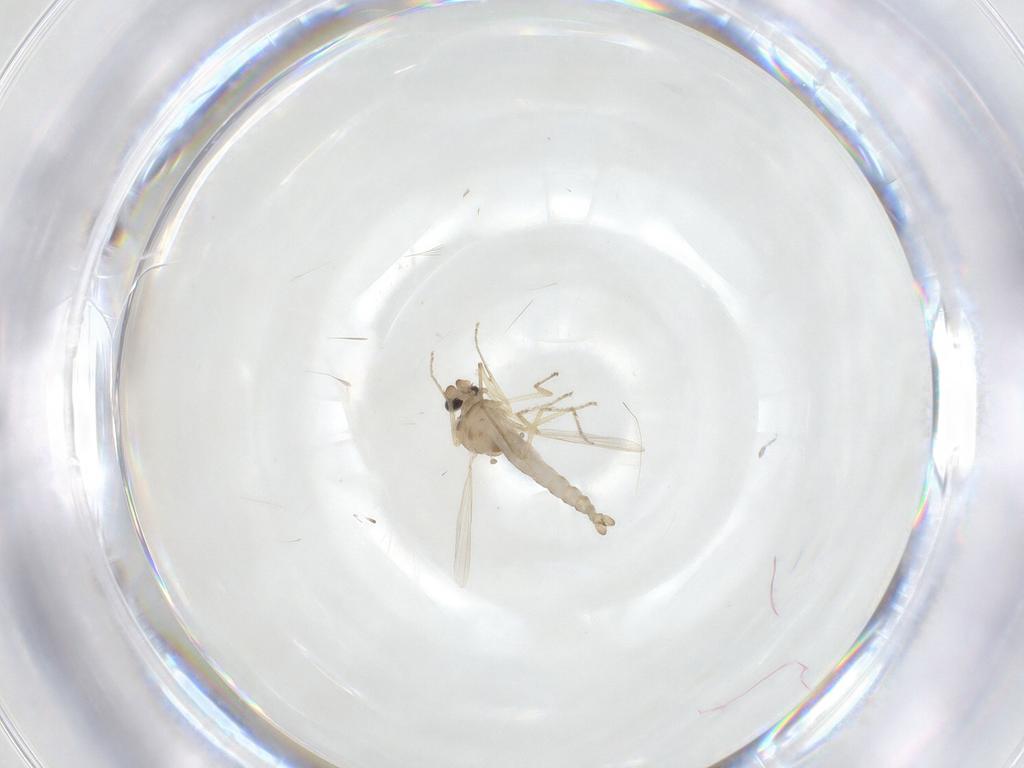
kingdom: Animalia
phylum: Arthropoda
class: Insecta
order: Diptera
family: Ceratopogonidae
